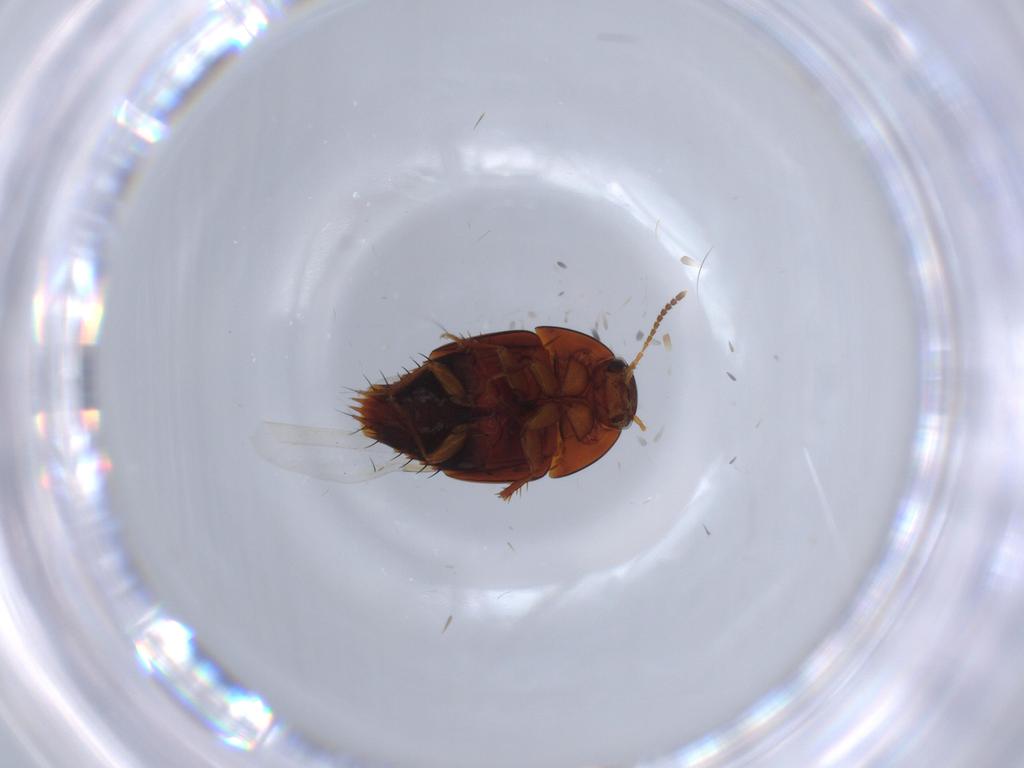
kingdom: Animalia
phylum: Arthropoda
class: Insecta
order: Coleoptera
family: Staphylinidae
